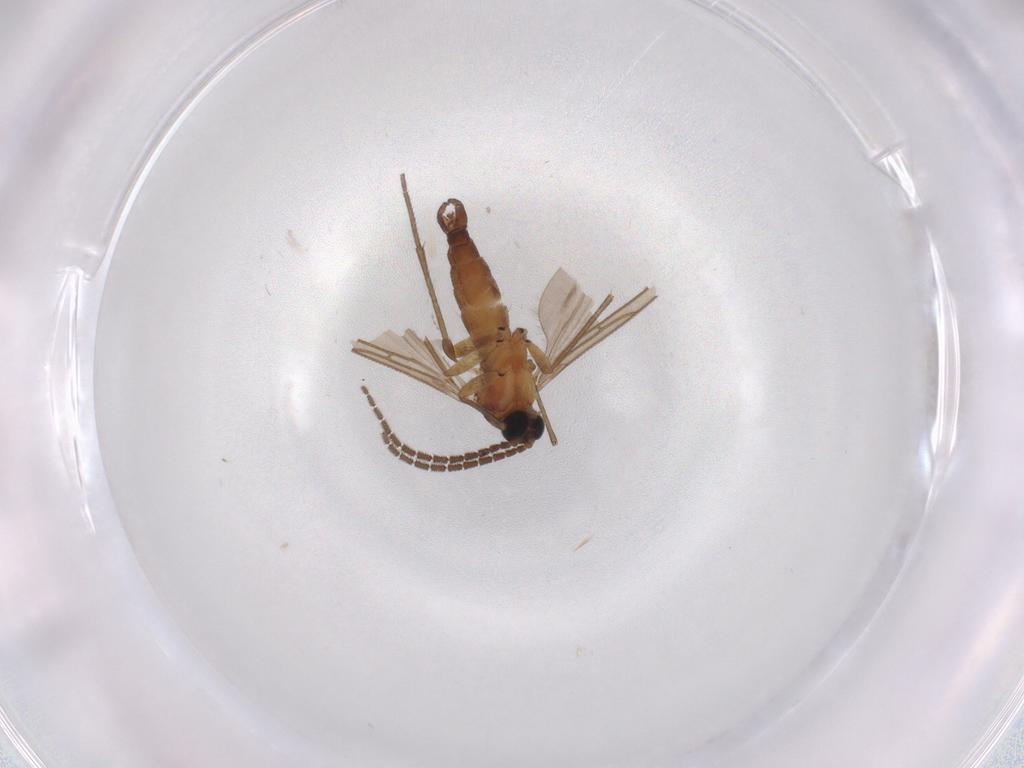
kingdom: Animalia
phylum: Arthropoda
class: Insecta
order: Diptera
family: Sciaridae
